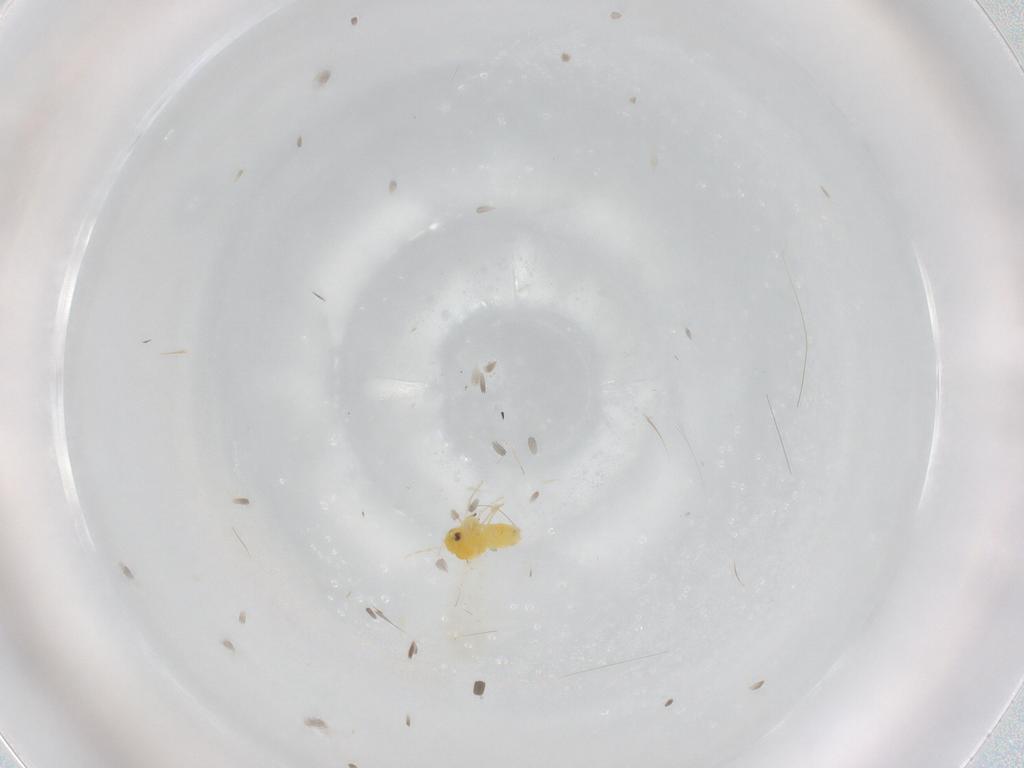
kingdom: Animalia
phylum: Arthropoda
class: Insecta
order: Hemiptera
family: Aleyrodidae
